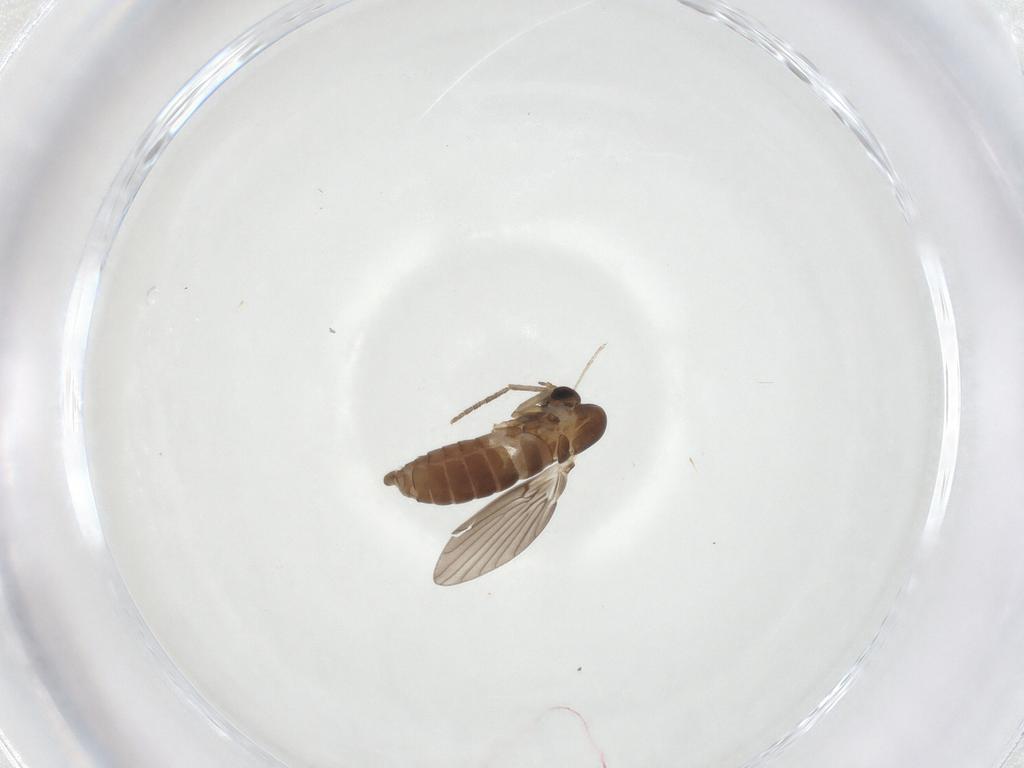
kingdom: Animalia
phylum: Arthropoda
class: Insecta
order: Diptera
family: Psychodidae
